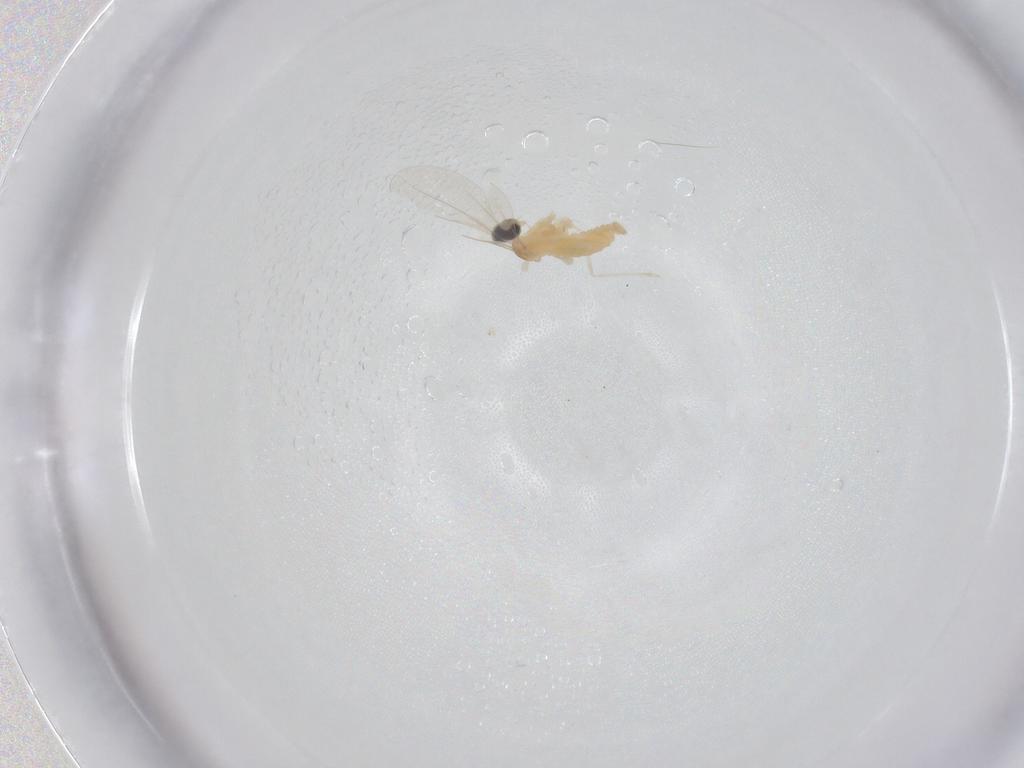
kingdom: Animalia
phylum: Arthropoda
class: Insecta
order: Diptera
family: Cecidomyiidae
